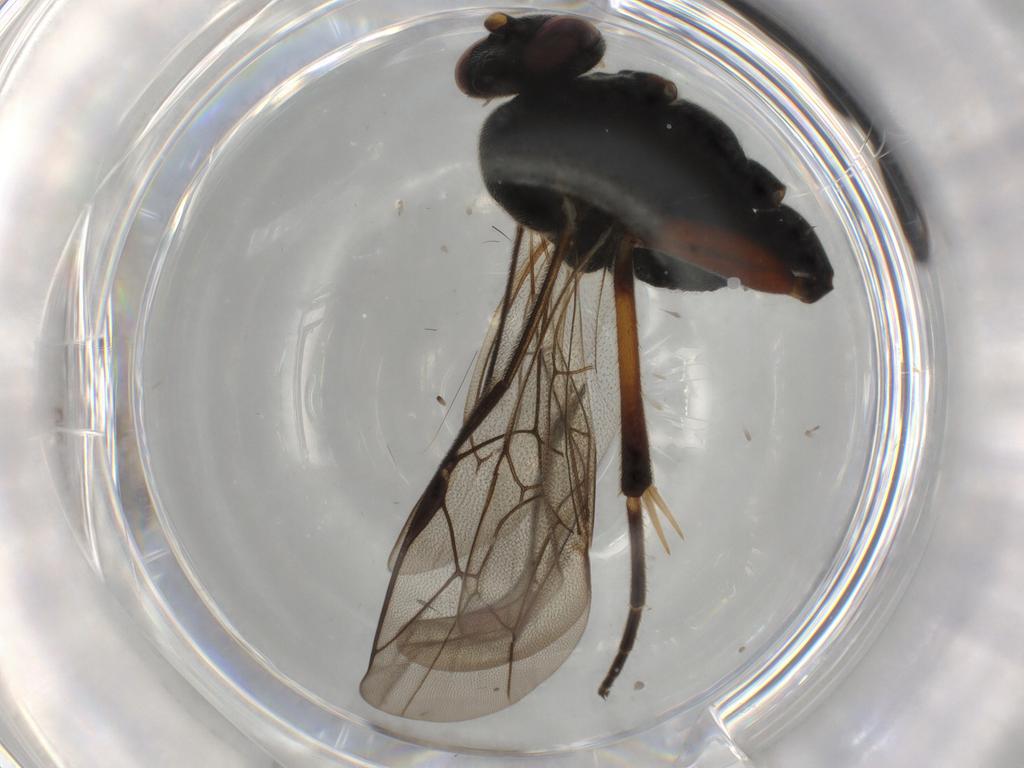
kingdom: Animalia
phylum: Arthropoda
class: Insecta
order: Hymenoptera
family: Ichneumonidae
